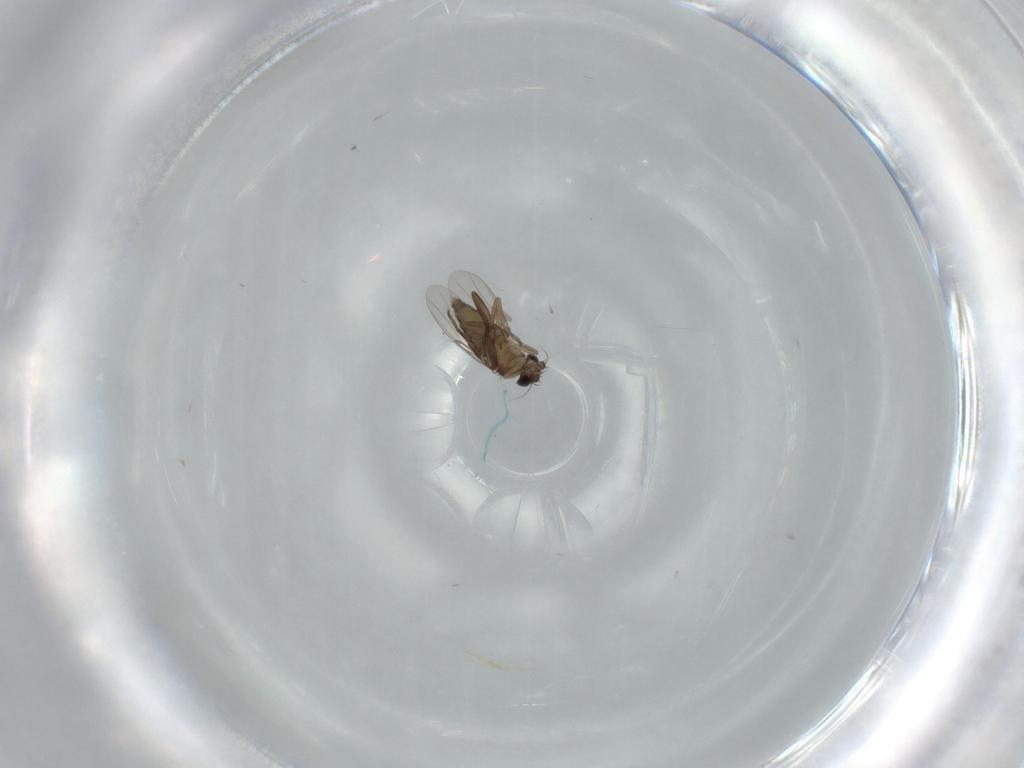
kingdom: Animalia
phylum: Arthropoda
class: Insecta
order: Diptera
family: Phoridae
